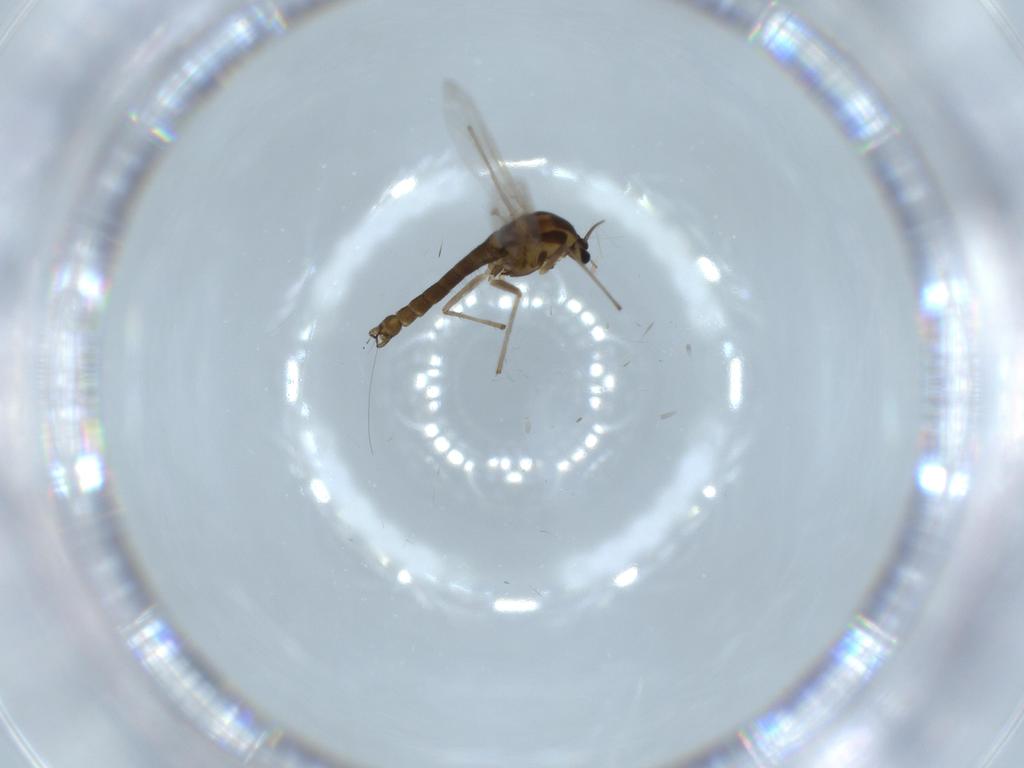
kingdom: Animalia
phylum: Arthropoda
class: Insecta
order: Diptera
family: Chironomidae
